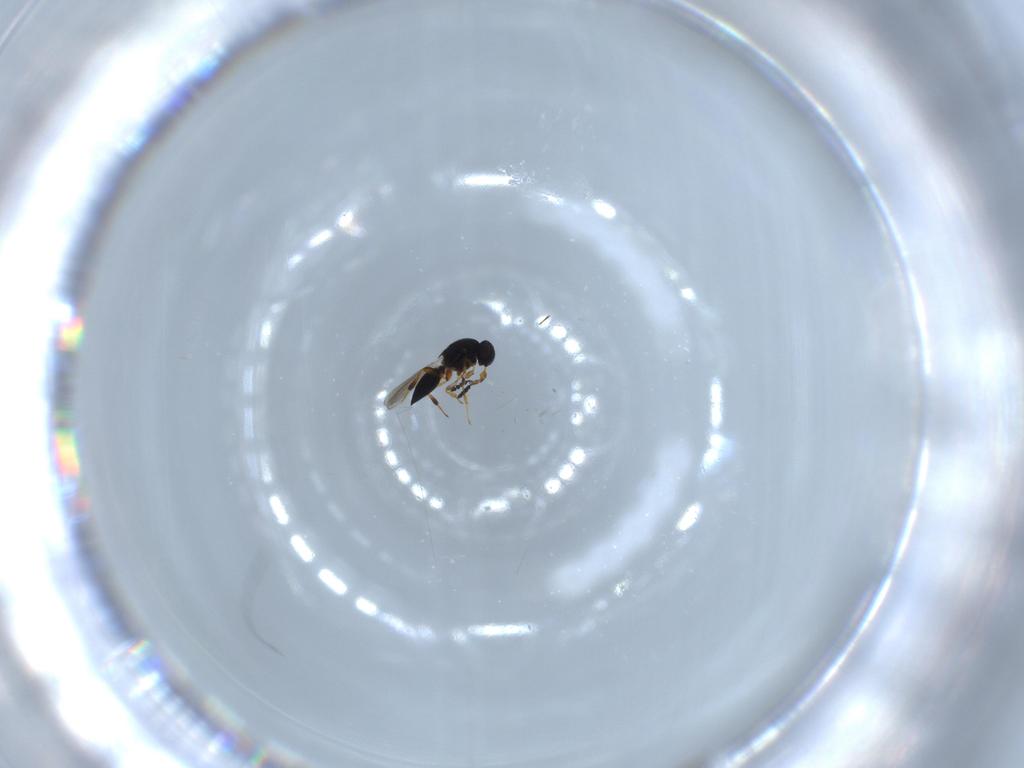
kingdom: Animalia
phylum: Arthropoda
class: Insecta
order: Hymenoptera
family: Platygastridae
